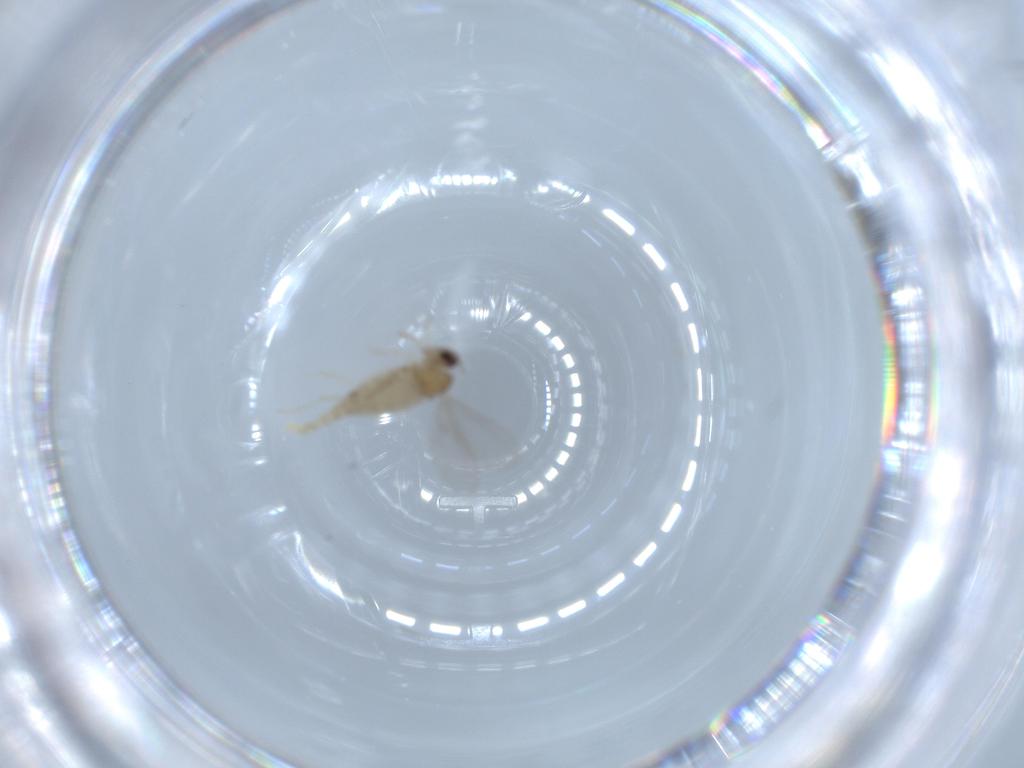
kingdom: Animalia
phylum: Arthropoda
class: Insecta
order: Diptera
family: Cecidomyiidae
